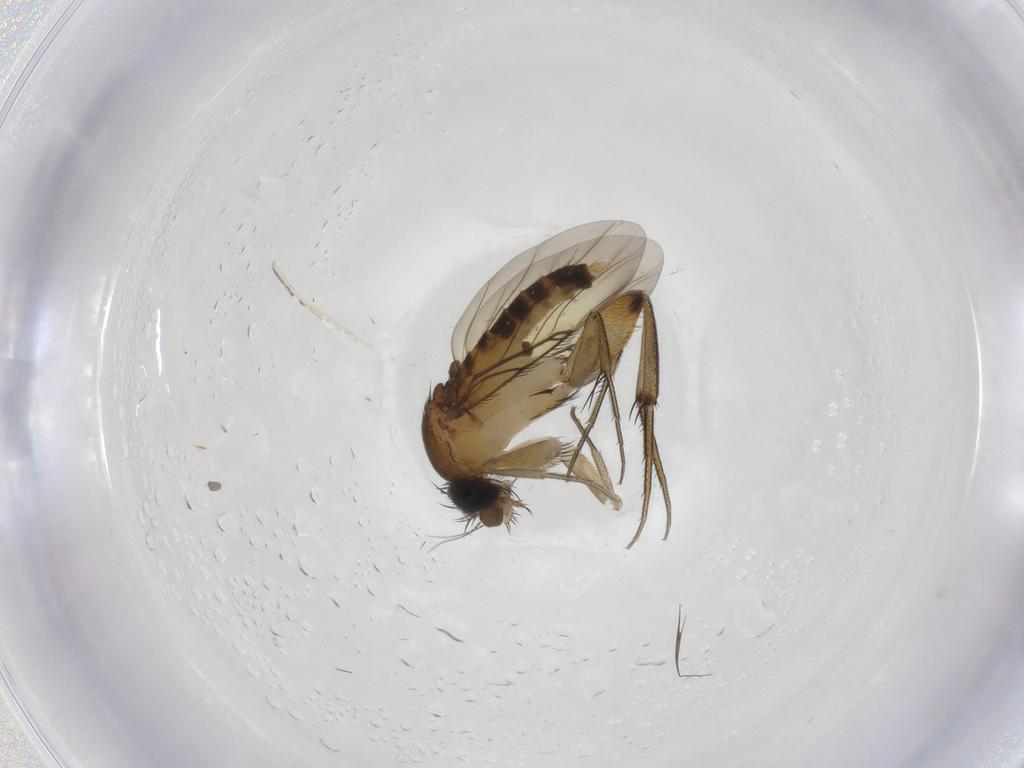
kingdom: Animalia
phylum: Arthropoda
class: Insecta
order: Diptera
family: Phoridae
